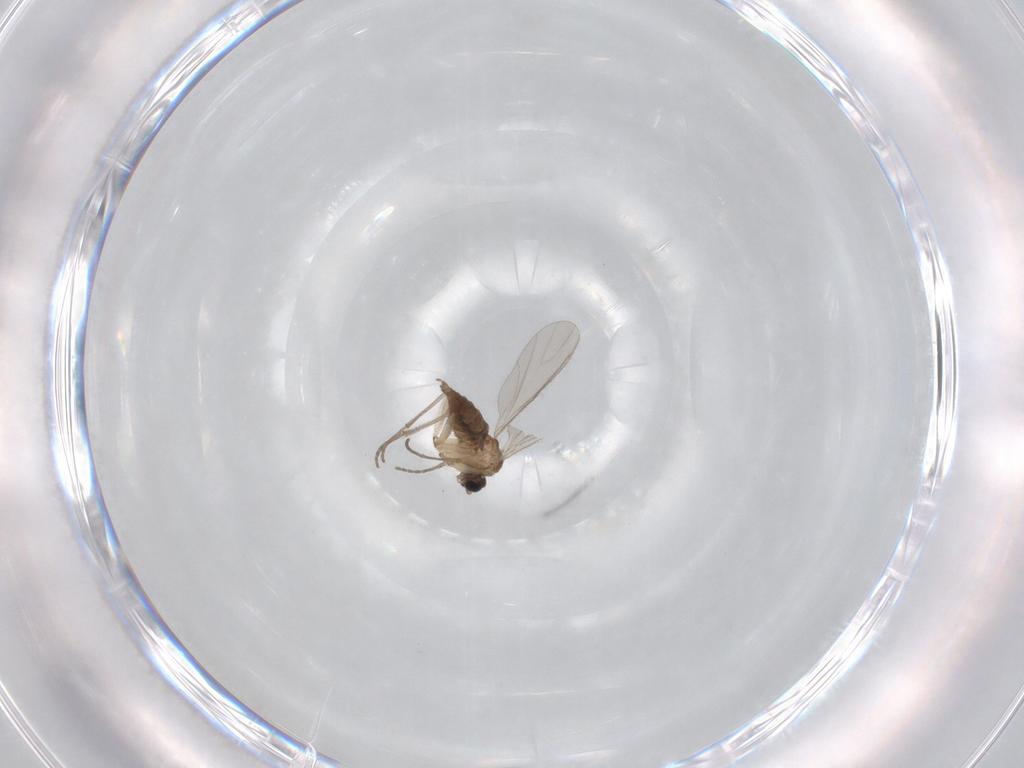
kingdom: Animalia
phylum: Arthropoda
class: Insecta
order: Diptera
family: Sciaridae
